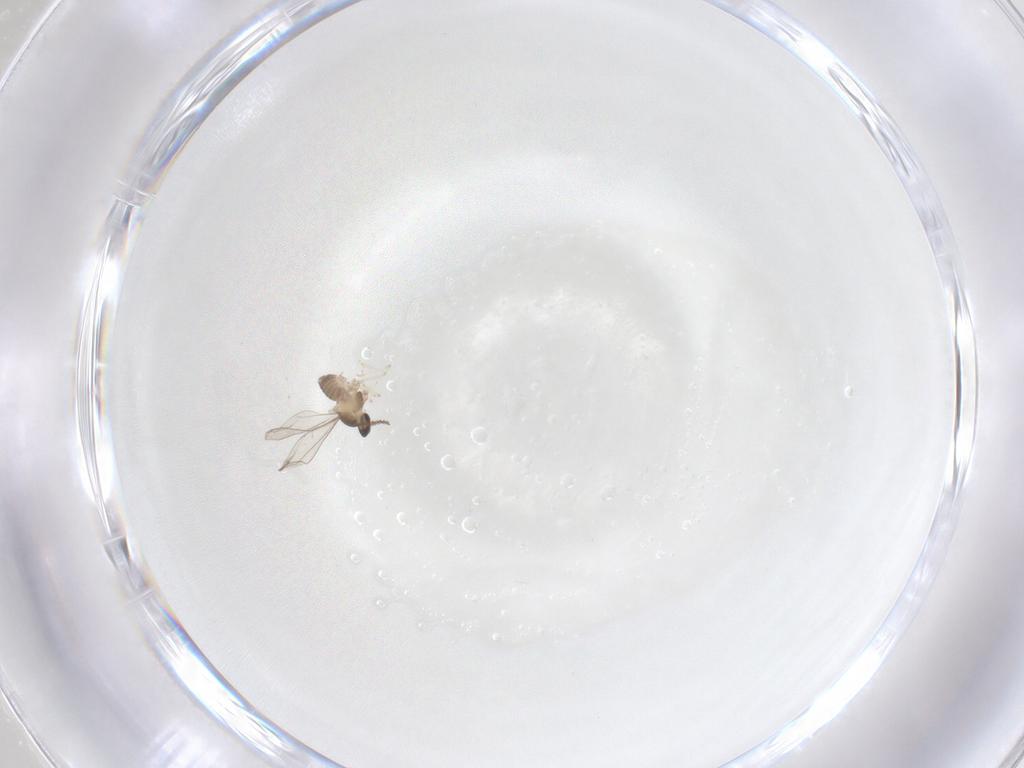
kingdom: Animalia
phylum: Arthropoda
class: Insecta
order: Diptera
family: Cecidomyiidae
